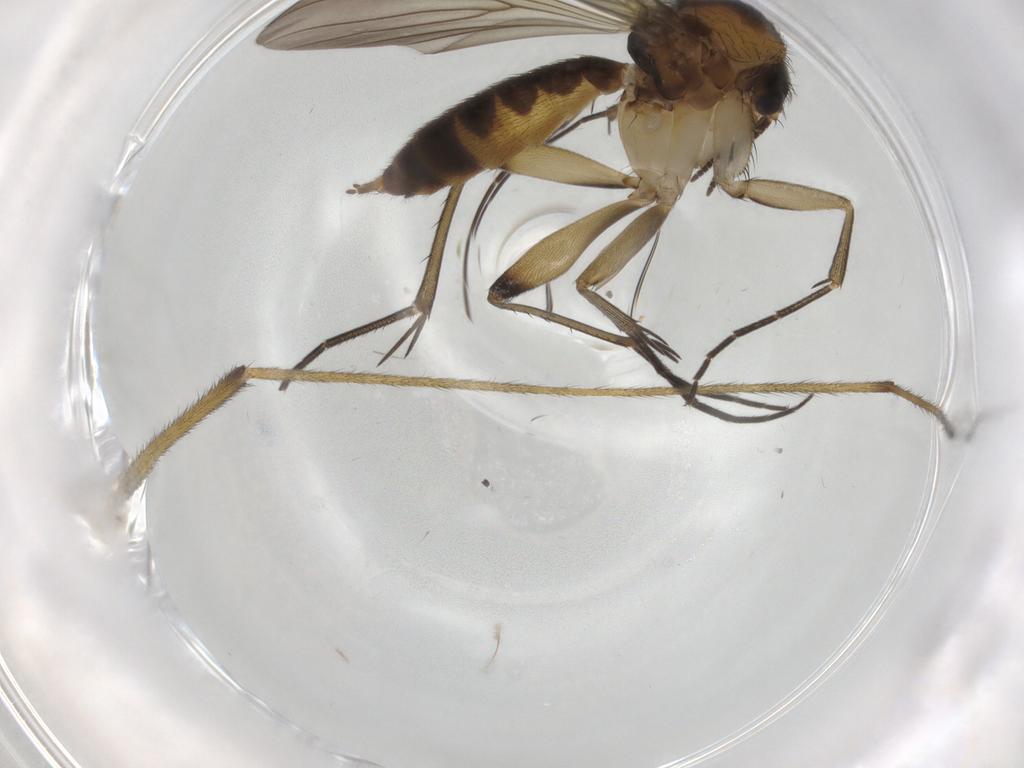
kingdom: Animalia
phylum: Arthropoda
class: Insecta
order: Diptera
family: Limoniidae
